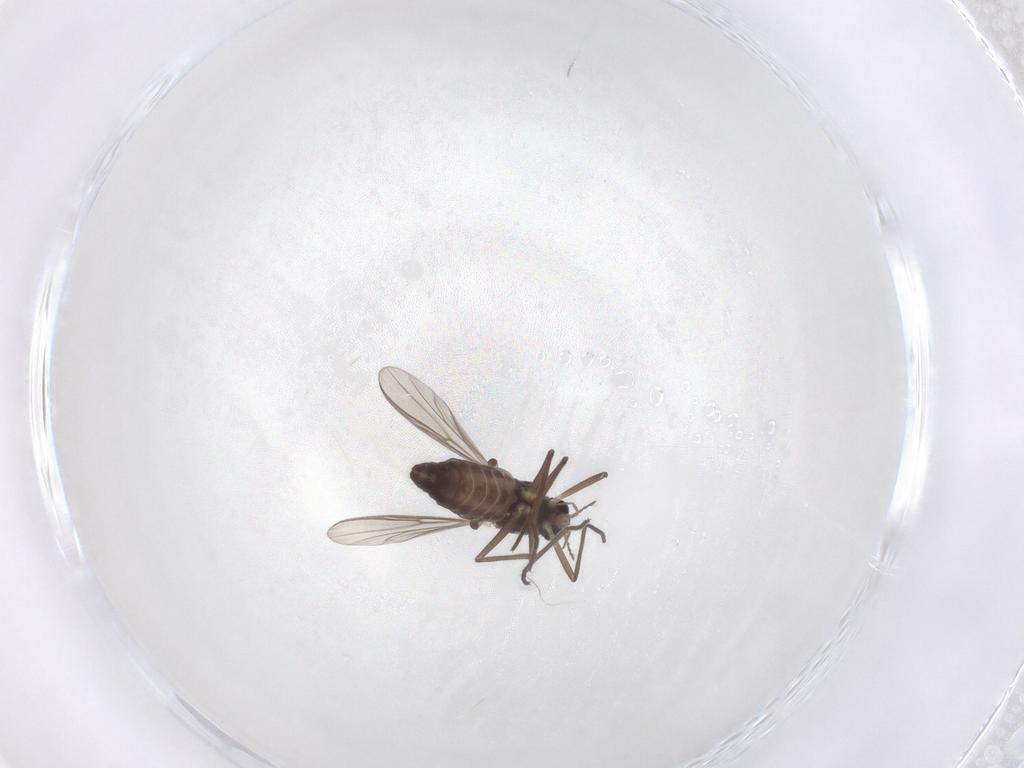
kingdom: Animalia
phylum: Arthropoda
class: Insecta
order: Diptera
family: Chironomidae
